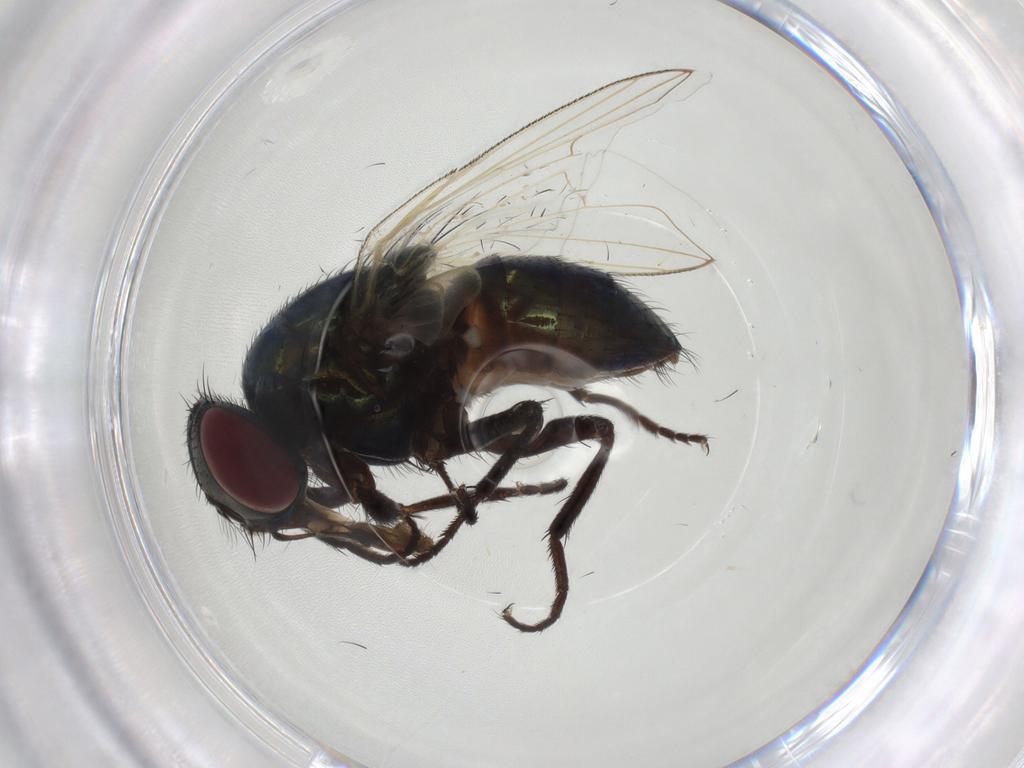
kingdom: Animalia
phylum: Arthropoda
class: Insecta
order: Diptera
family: Muscidae
